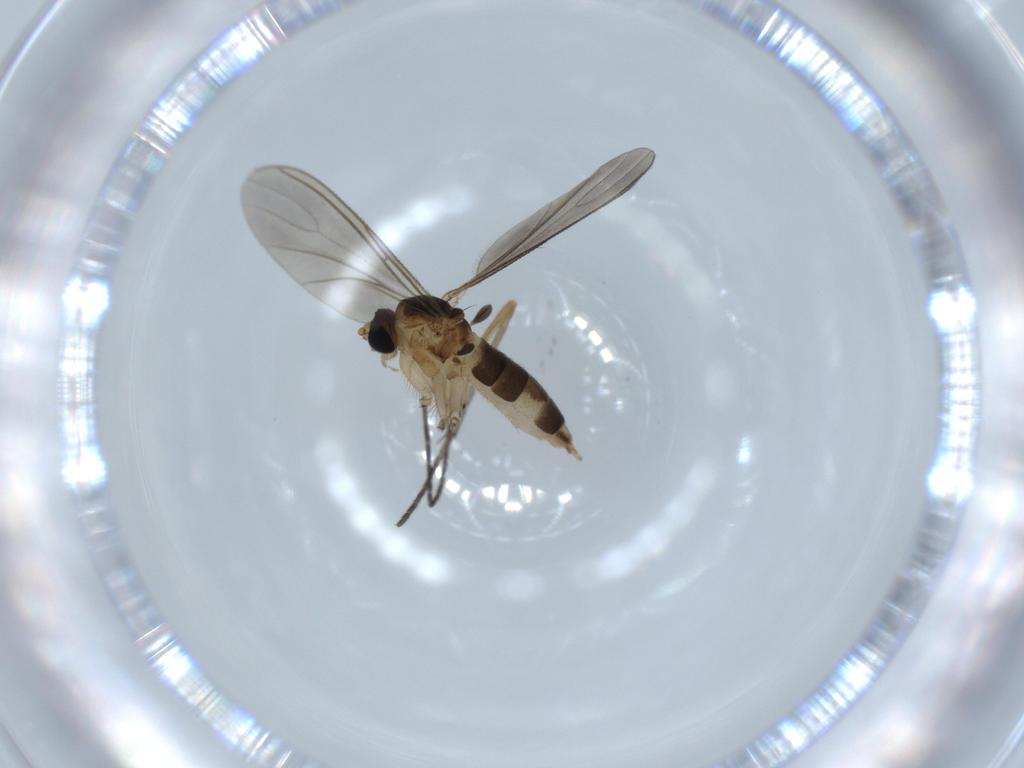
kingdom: Animalia
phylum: Arthropoda
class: Insecta
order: Diptera
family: Sciaridae
